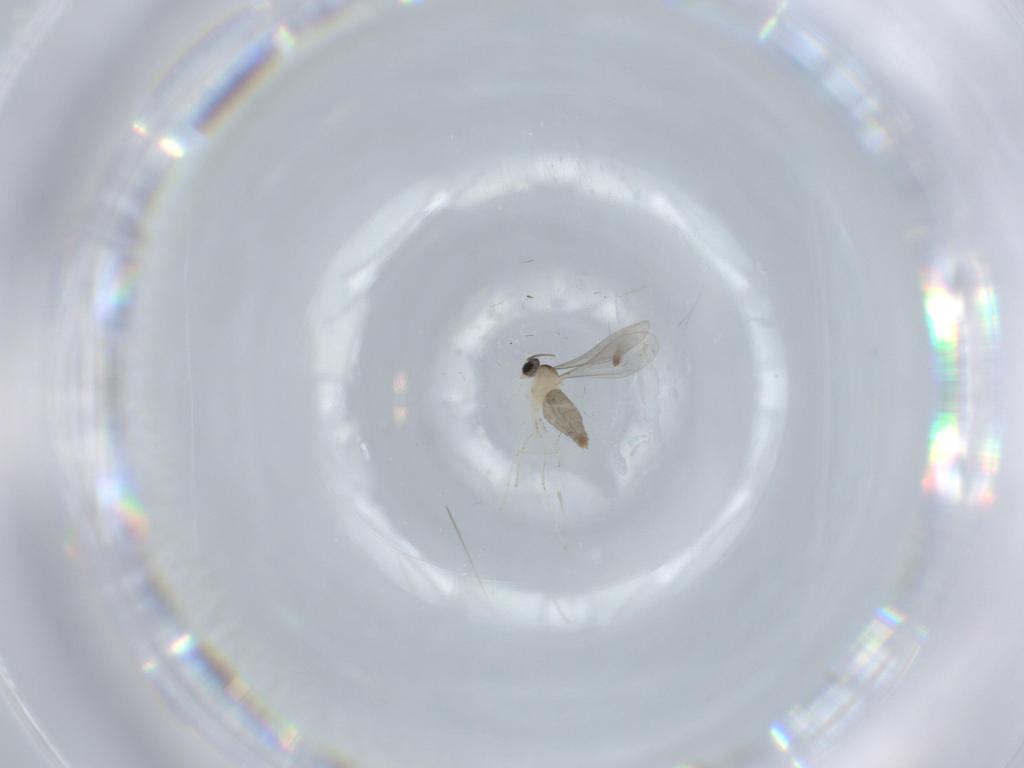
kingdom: Animalia
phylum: Arthropoda
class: Insecta
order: Diptera
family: Cecidomyiidae
